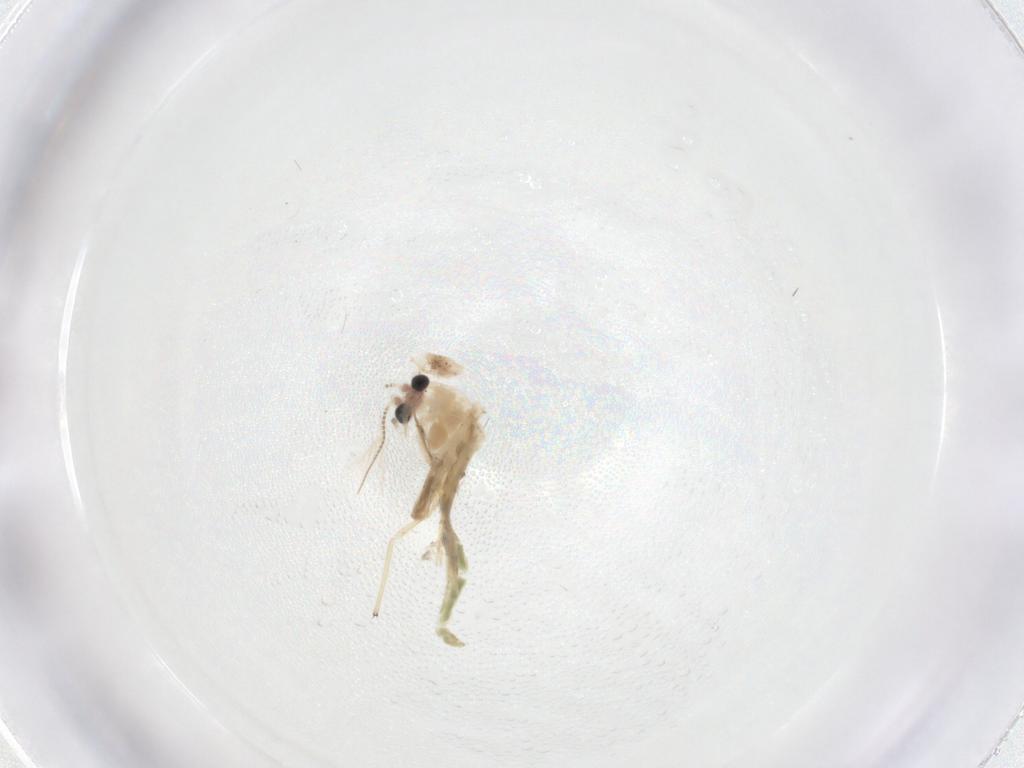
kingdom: Animalia
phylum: Arthropoda
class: Insecta
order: Diptera
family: Chironomidae
